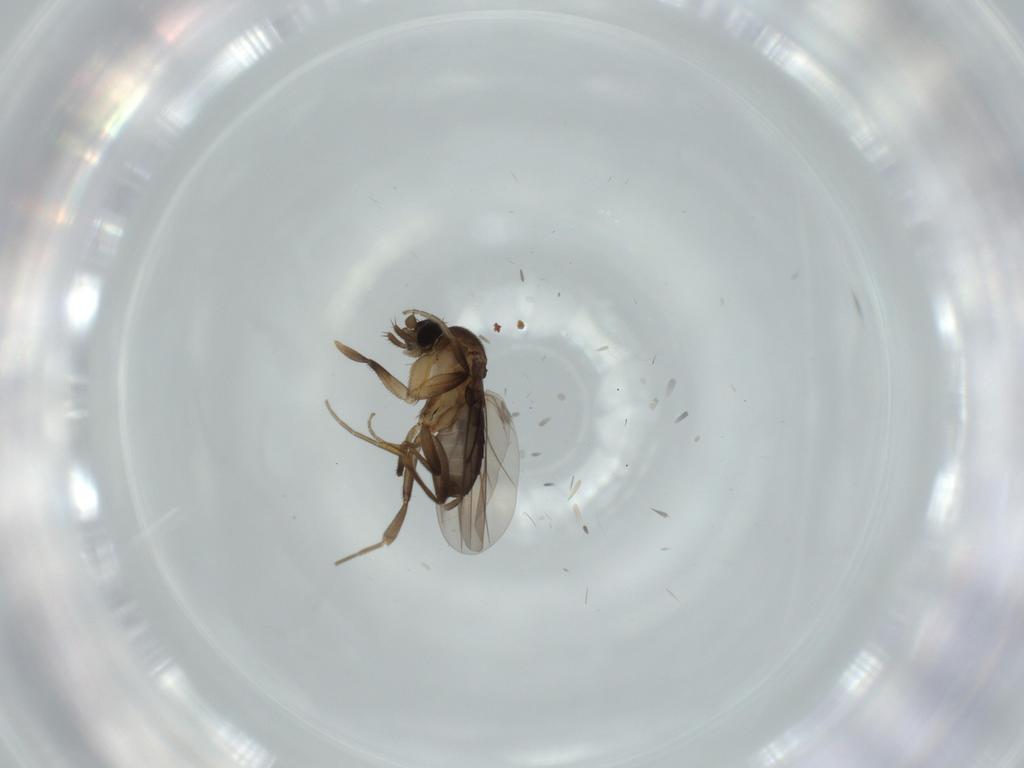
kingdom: Animalia
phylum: Arthropoda
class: Insecta
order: Diptera
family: Phoridae
